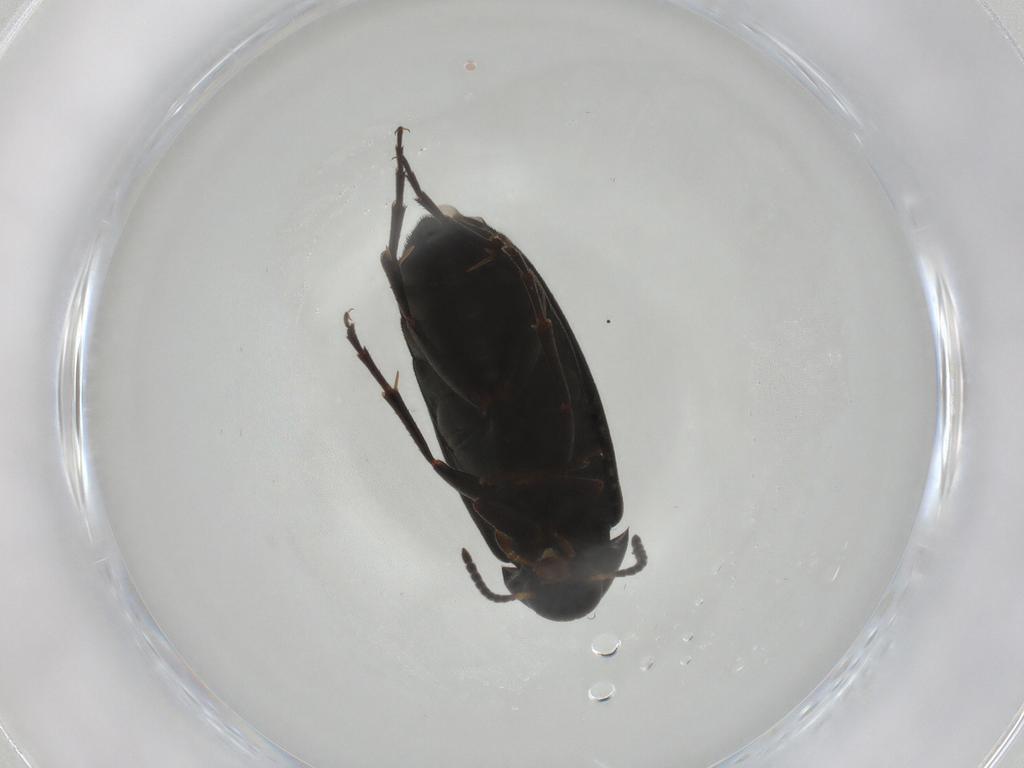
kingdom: Animalia
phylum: Arthropoda
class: Insecta
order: Coleoptera
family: Scraptiidae
